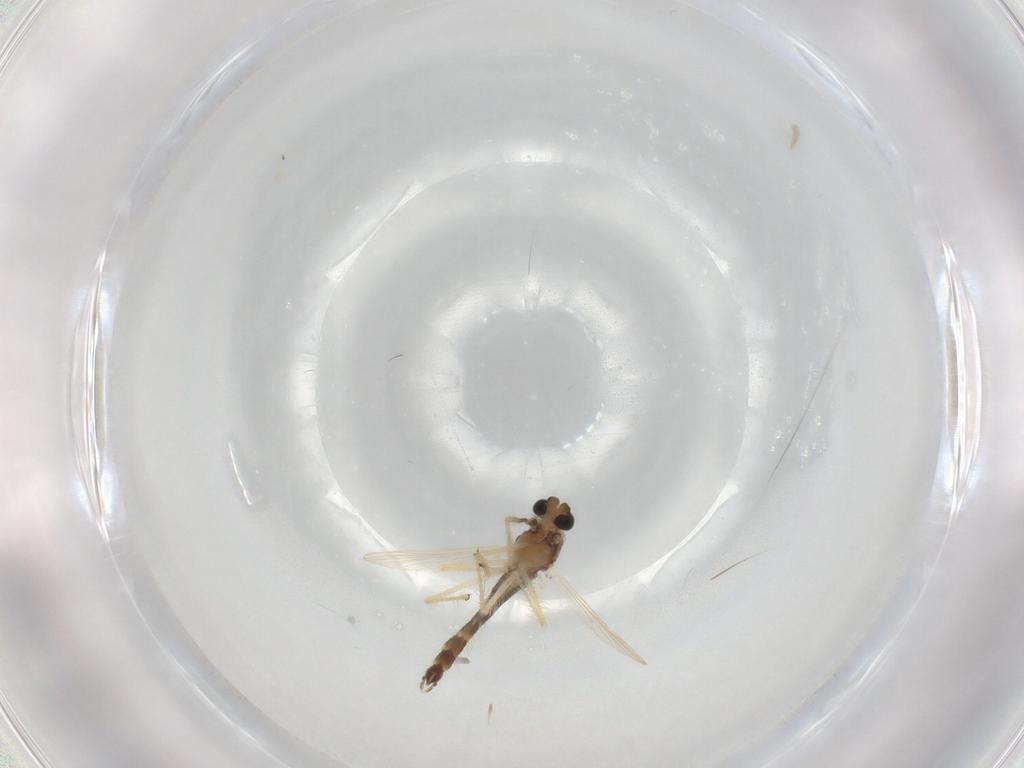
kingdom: Animalia
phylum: Arthropoda
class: Insecta
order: Diptera
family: Chironomidae
